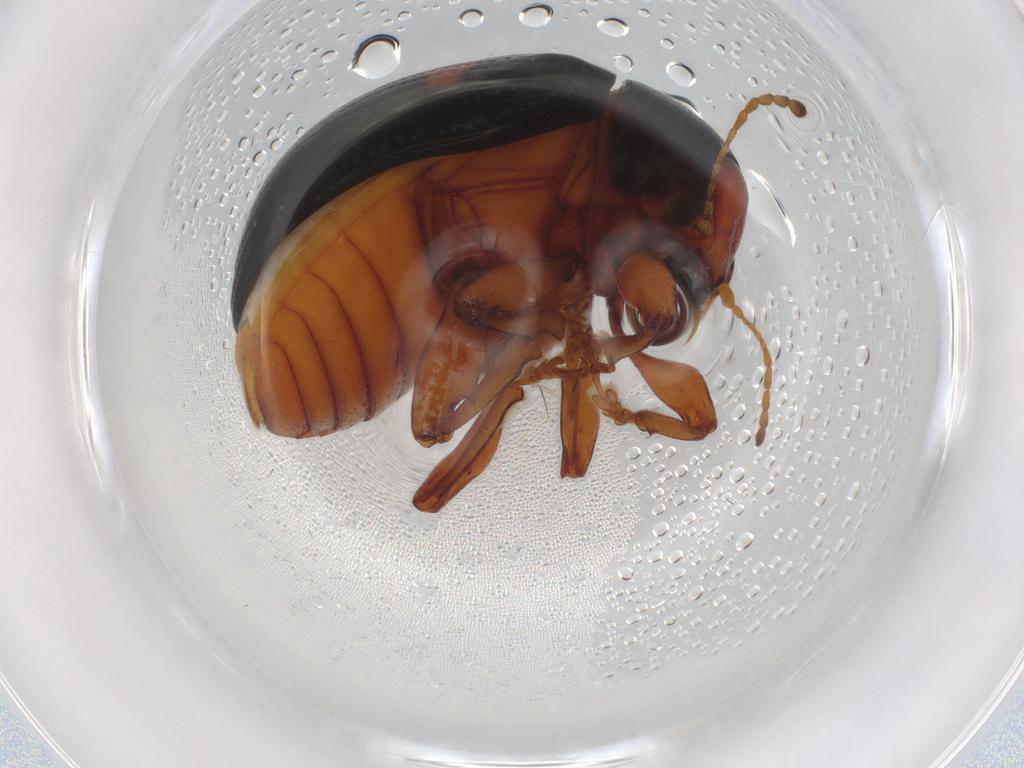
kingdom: Animalia
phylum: Arthropoda
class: Insecta
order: Coleoptera
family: Chrysomelidae
